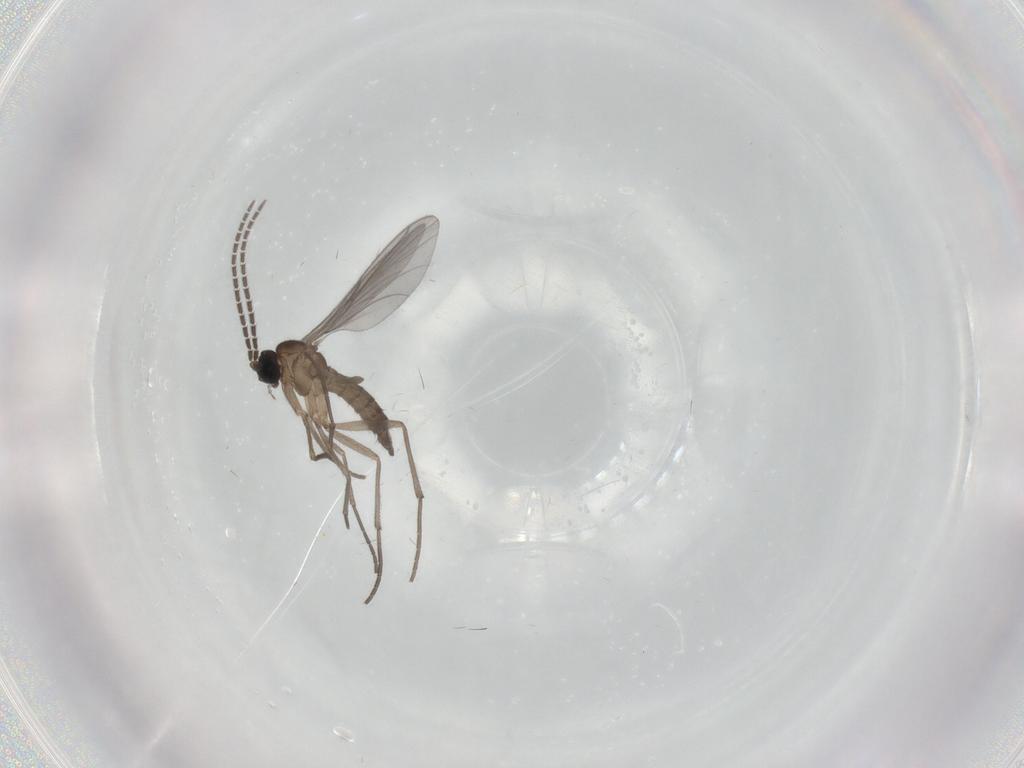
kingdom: Animalia
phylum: Arthropoda
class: Insecta
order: Diptera
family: Sciaridae
